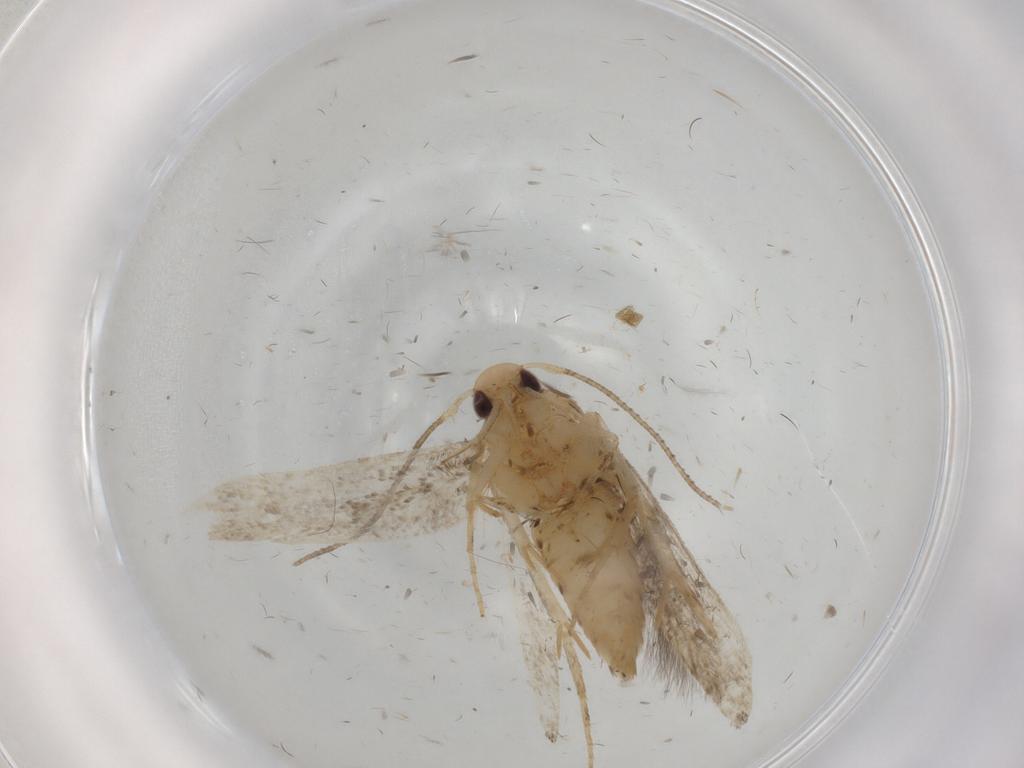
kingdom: Animalia
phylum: Arthropoda
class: Insecta
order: Lepidoptera
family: Cosmopterigidae
